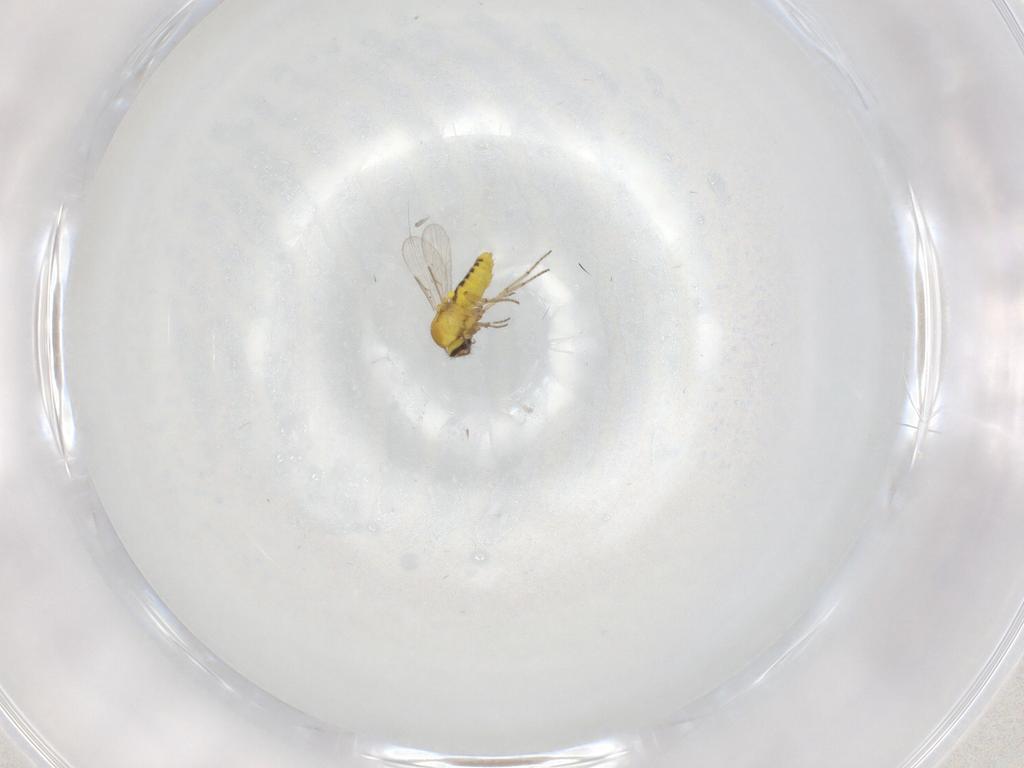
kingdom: Animalia
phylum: Arthropoda
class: Insecta
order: Diptera
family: Ceratopogonidae
